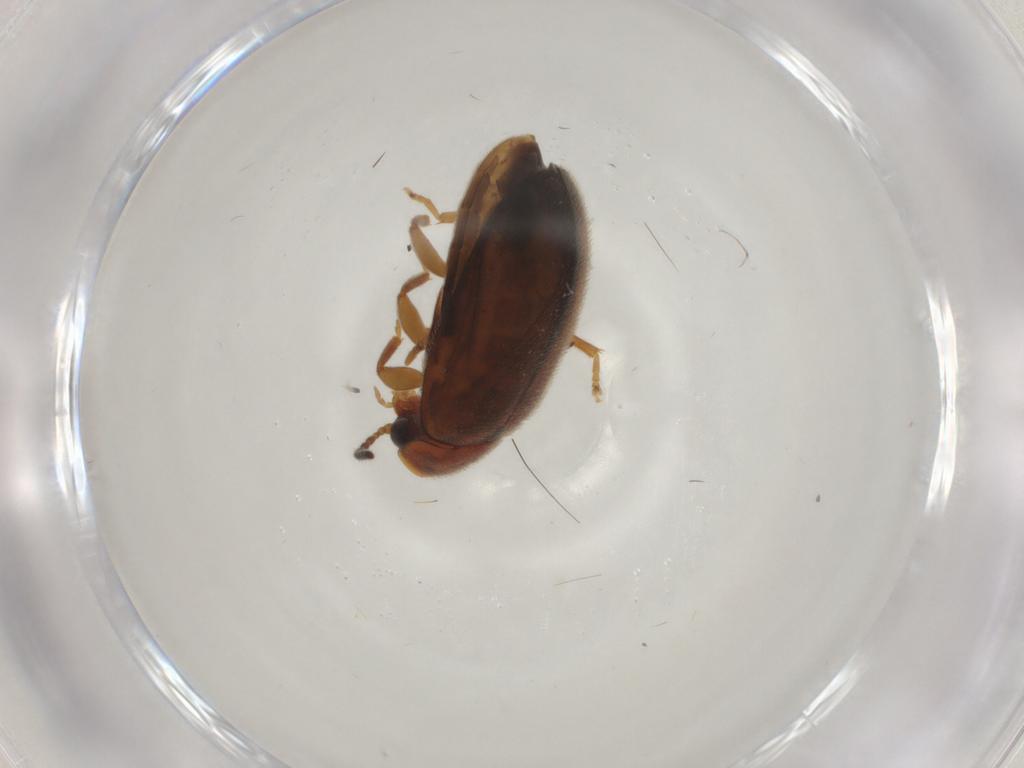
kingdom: Animalia
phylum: Arthropoda
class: Insecta
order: Coleoptera
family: Scirtidae
